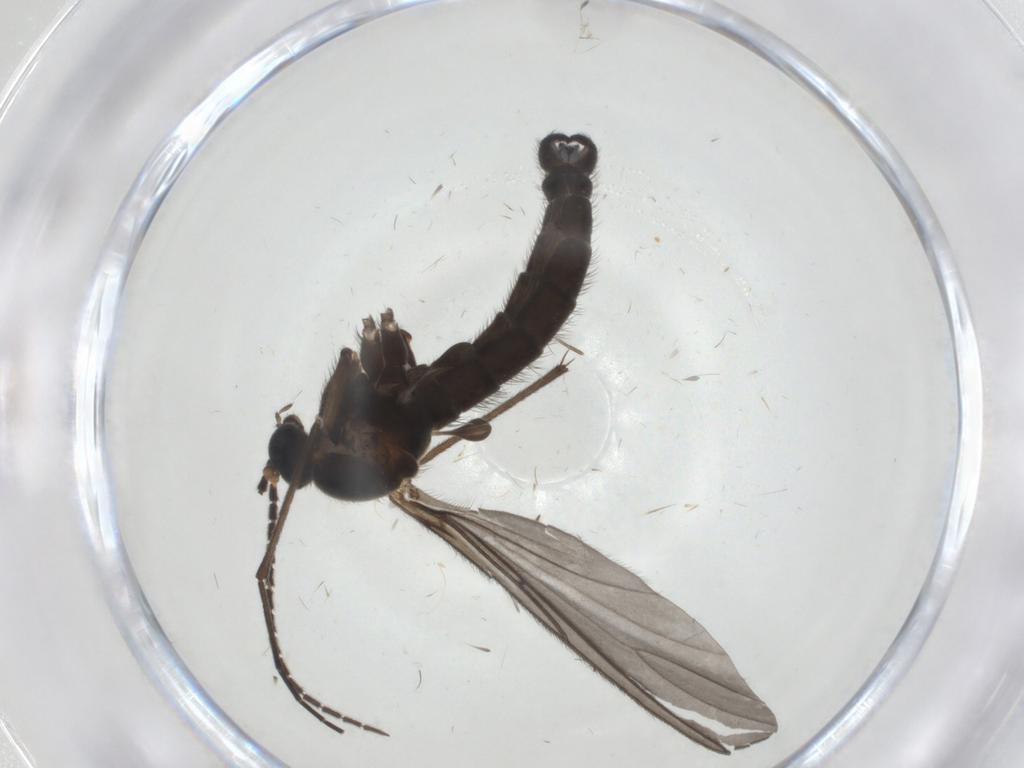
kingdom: Animalia
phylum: Arthropoda
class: Insecta
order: Diptera
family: Sciaridae
